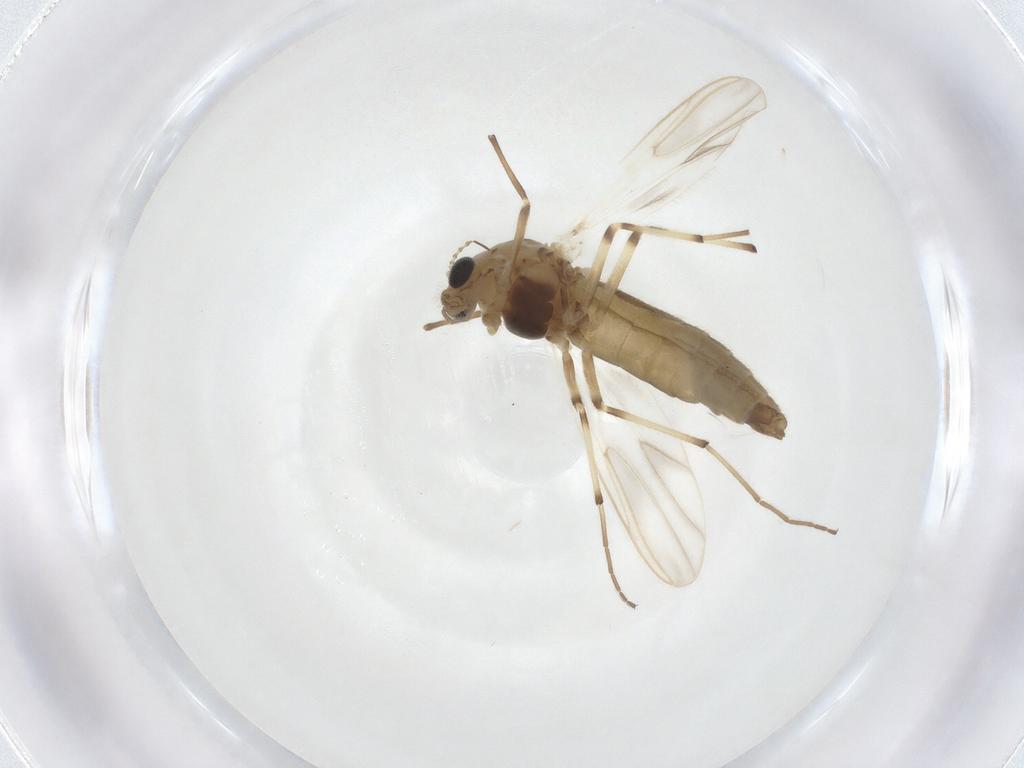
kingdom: Animalia
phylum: Arthropoda
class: Insecta
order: Diptera
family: Chironomidae
